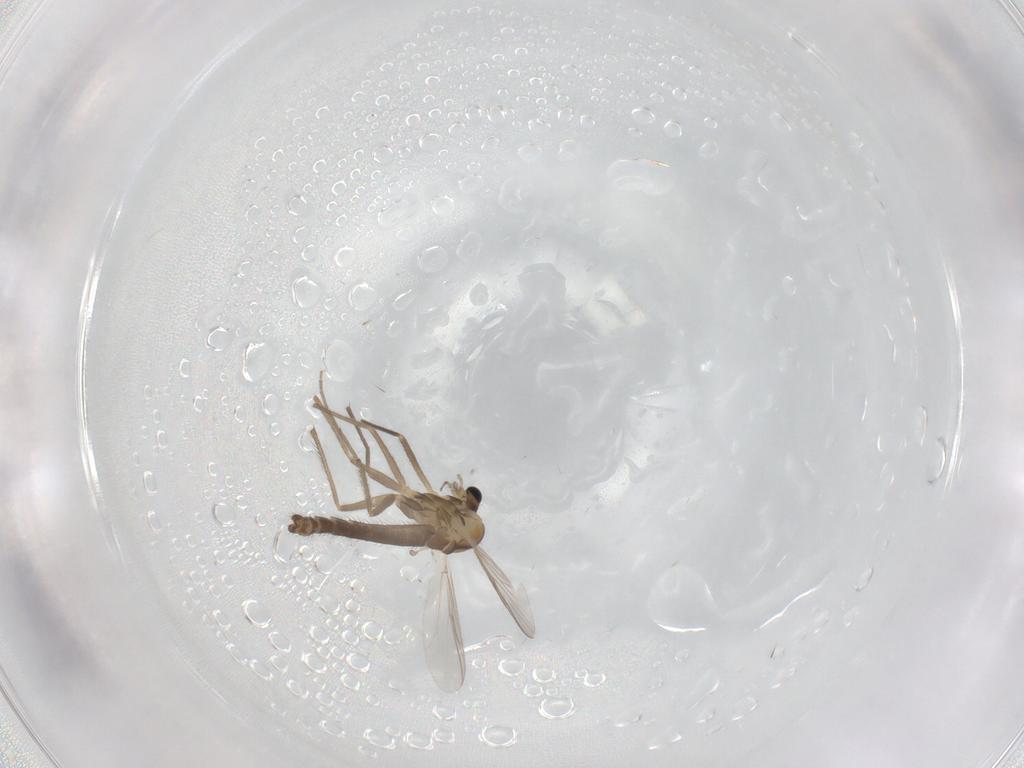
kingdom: Animalia
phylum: Arthropoda
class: Insecta
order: Diptera
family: Chironomidae
